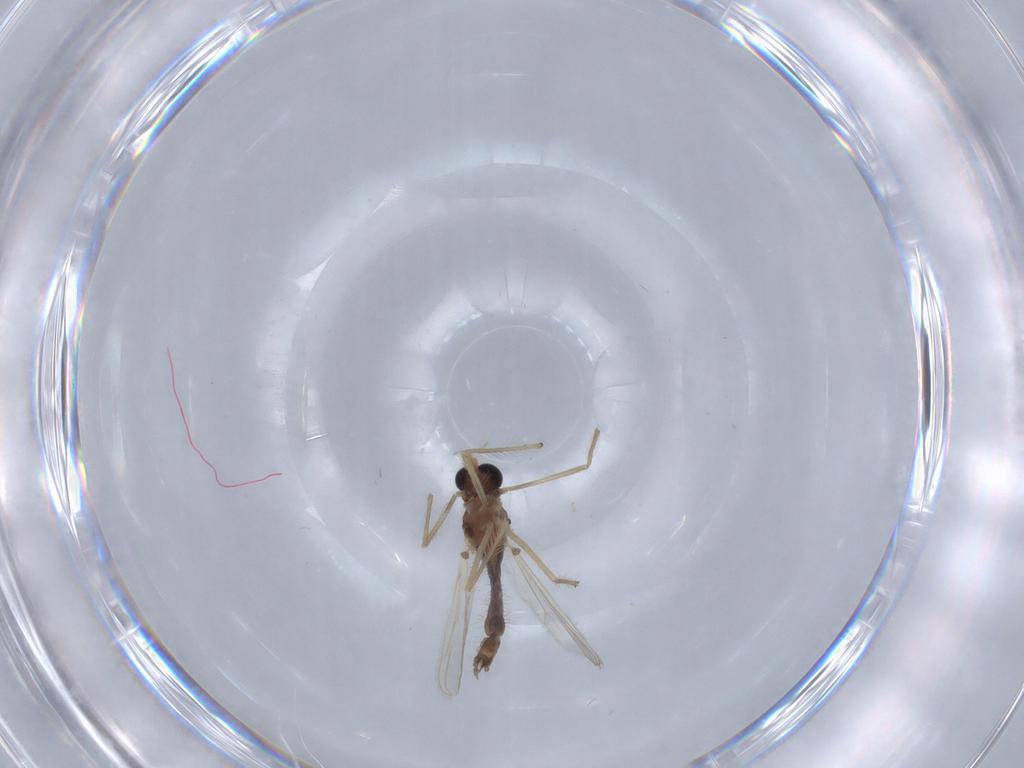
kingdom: Animalia
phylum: Arthropoda
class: Insecta
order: Diptera
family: Chironomidae
